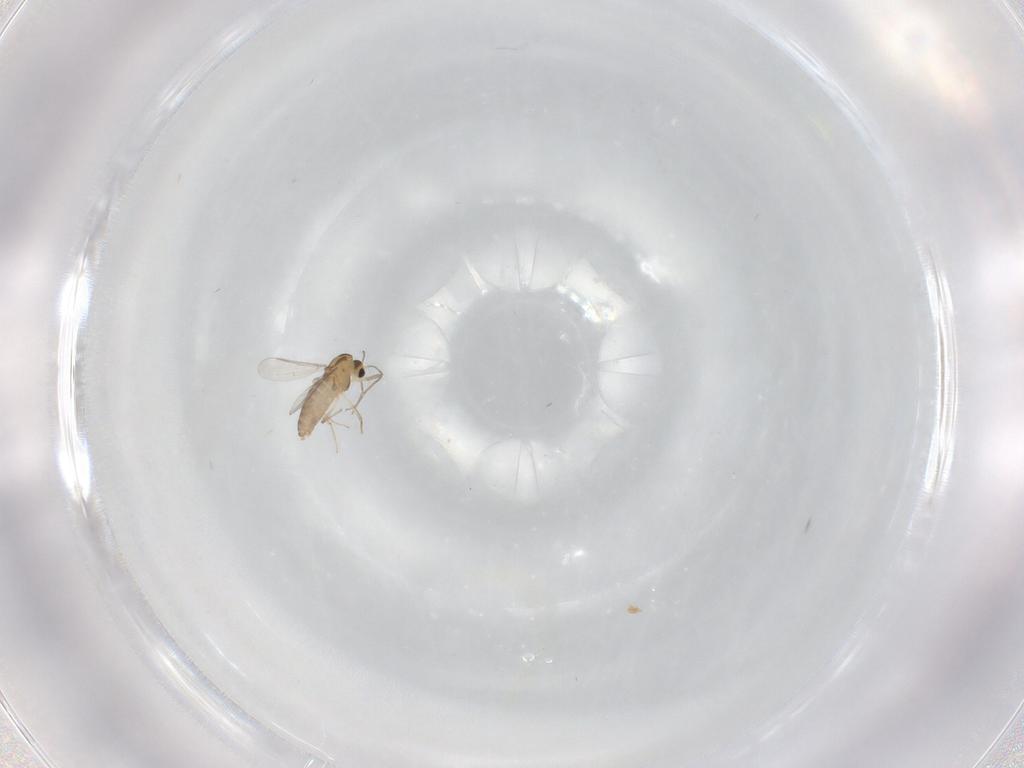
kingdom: Animalia
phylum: Arthropoda
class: Insecta
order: Diptera
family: Chironomidae
